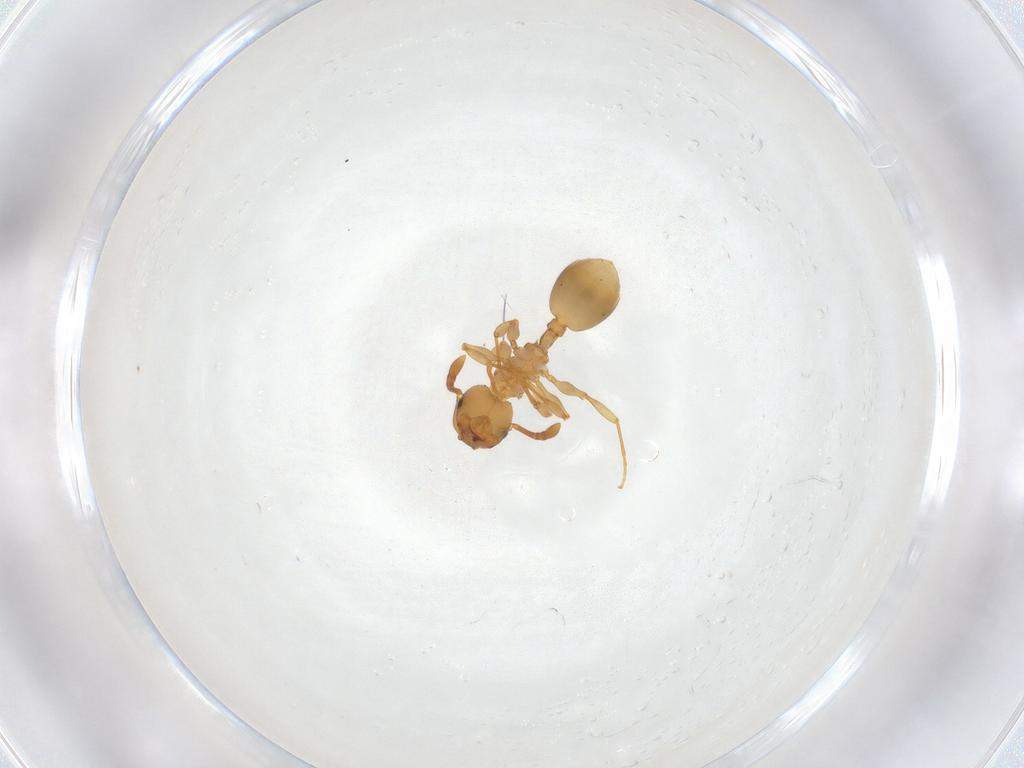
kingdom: Animalia
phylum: Arthropoda
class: Insecta
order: Hymenoptera
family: Formicidae
